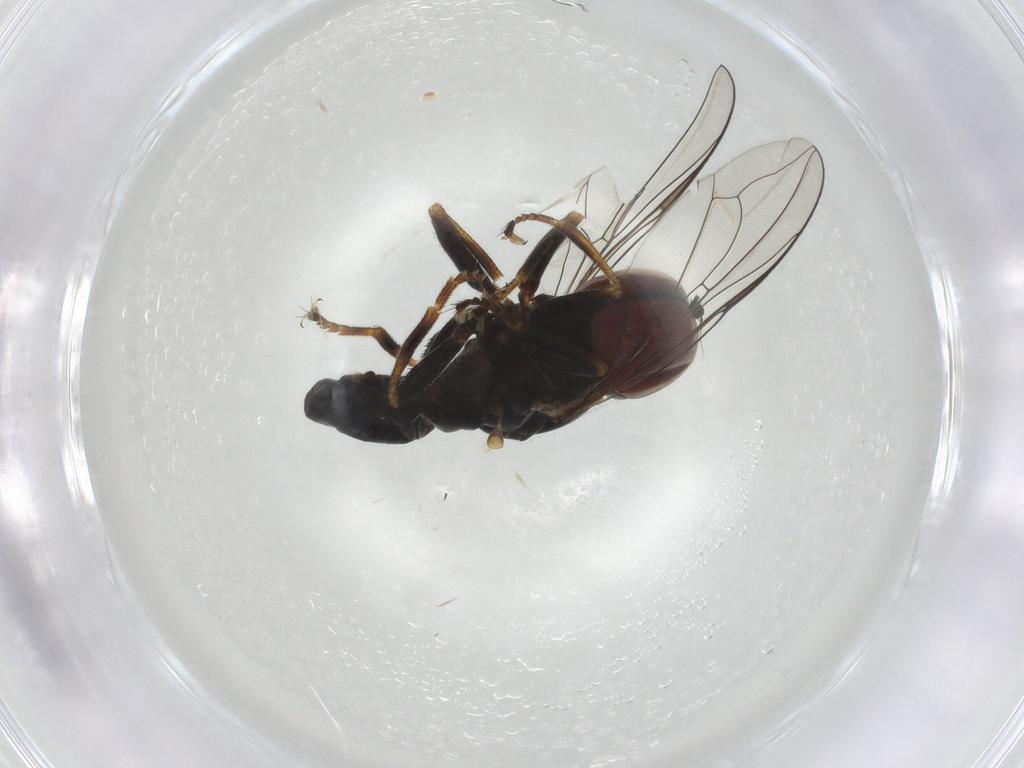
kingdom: Animalia
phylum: Arthropoda
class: Insecta
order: Diptera
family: Pipunculidae
